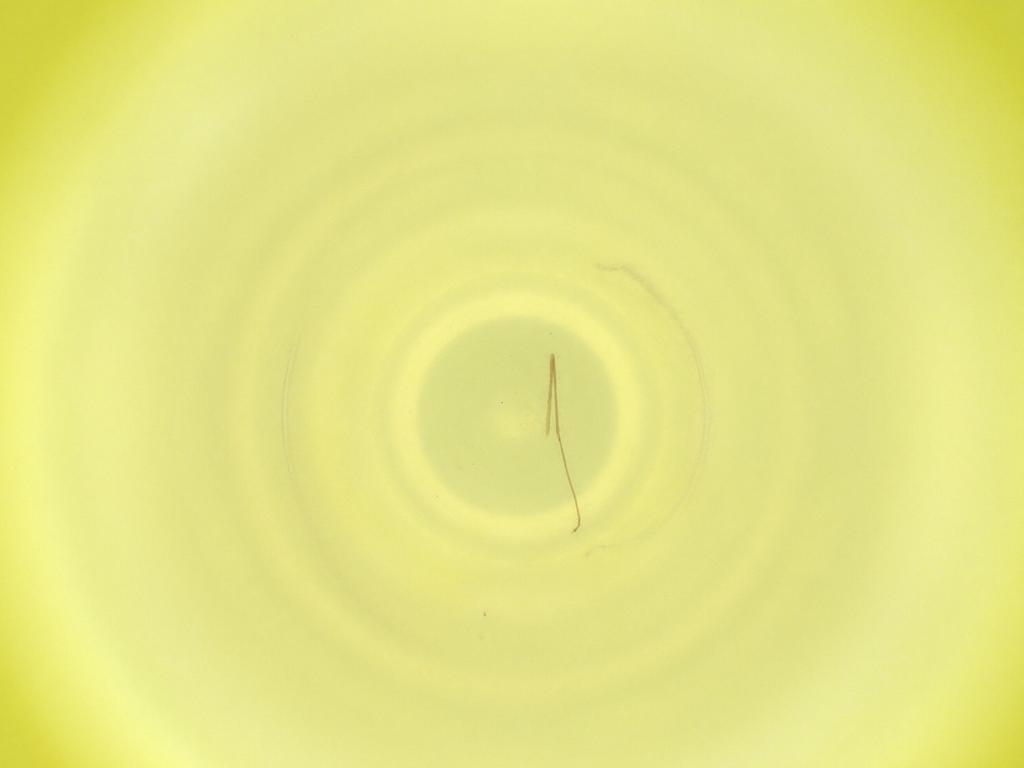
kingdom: Animalia
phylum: Arthropoda
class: Insecta
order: Diptera
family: Cecidomyiidae
